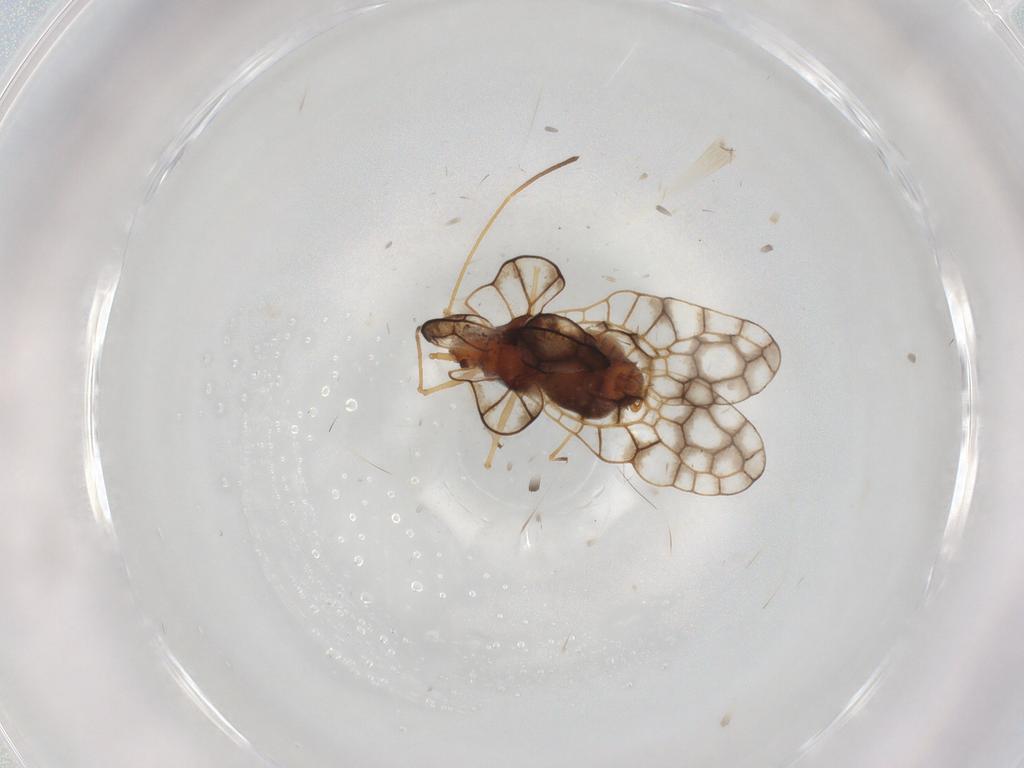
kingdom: Animalia
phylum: Arthropoda
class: Insecta
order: Hemiptera
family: Tingidae
